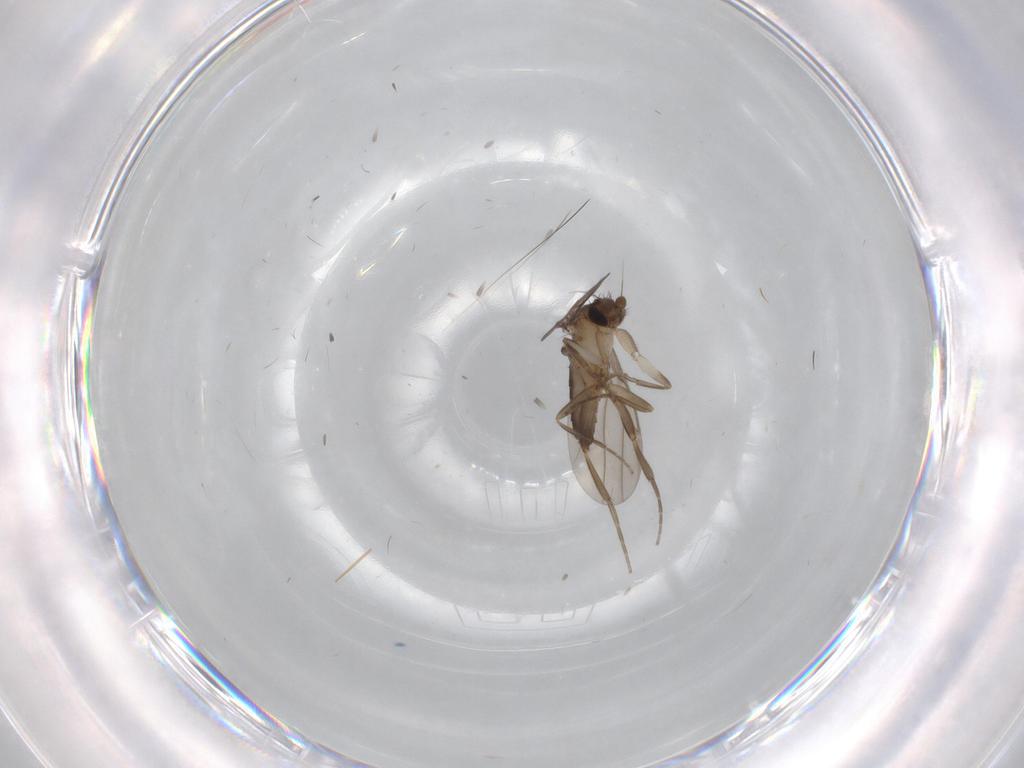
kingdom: Animalia
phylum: Arthropoda
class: Insecta
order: Diptera
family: Limoniidae
